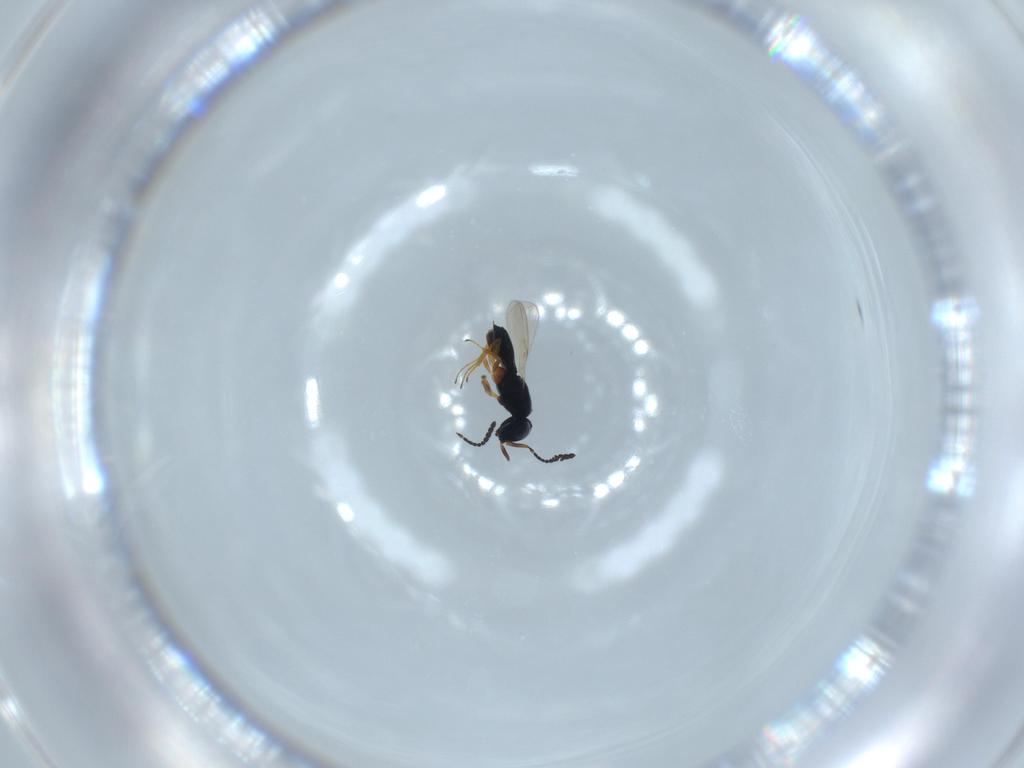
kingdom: Animalia
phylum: Arthropoda
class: Insecta
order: Hymenoptera
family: Scelionidae
